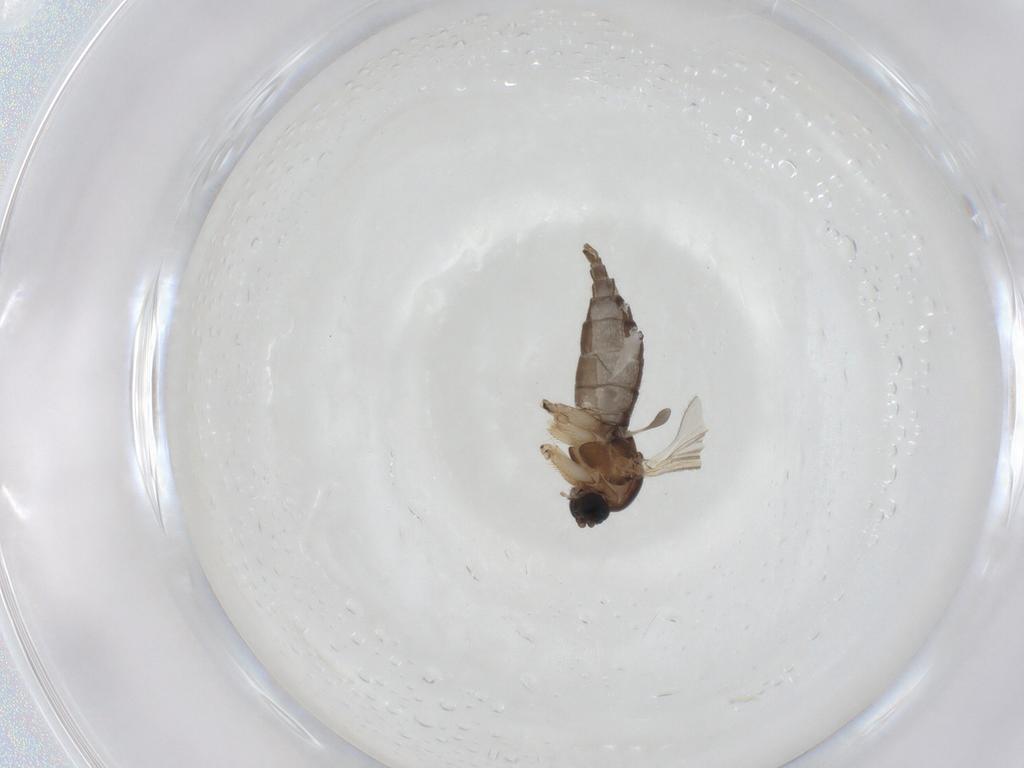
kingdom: Animalia
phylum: Arthropoda
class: Insecta
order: Diptera
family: Sciaridae
